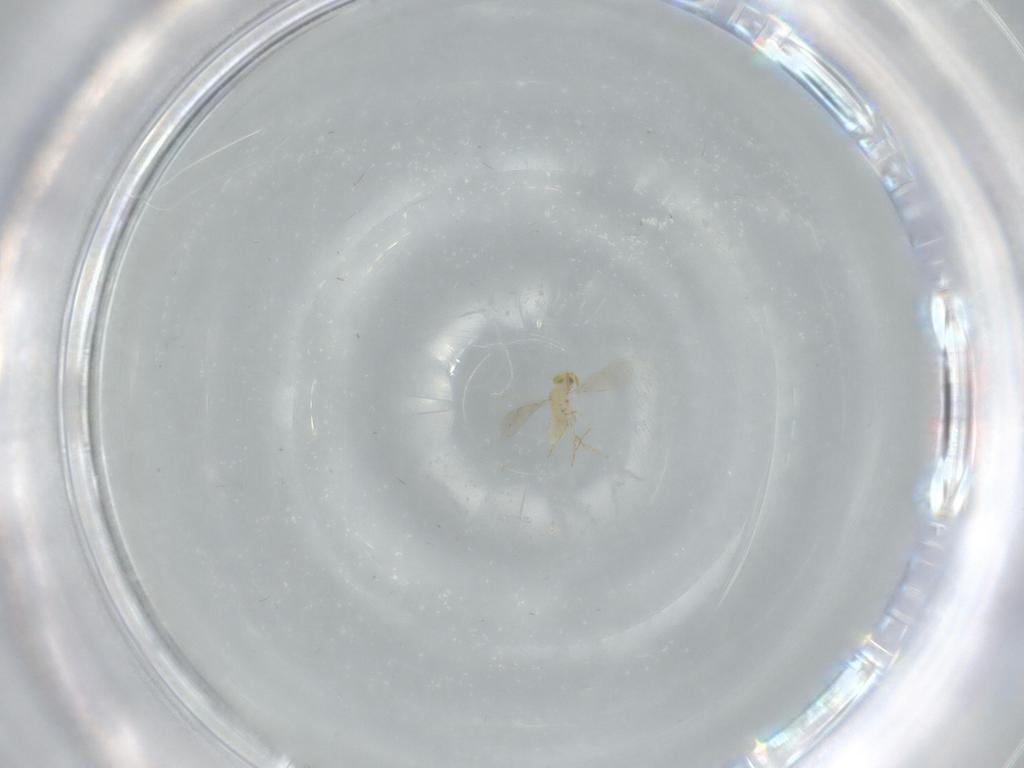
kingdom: Animalia
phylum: Arthropoda
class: Insecta
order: Hymenoptera
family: Aphelinidae
